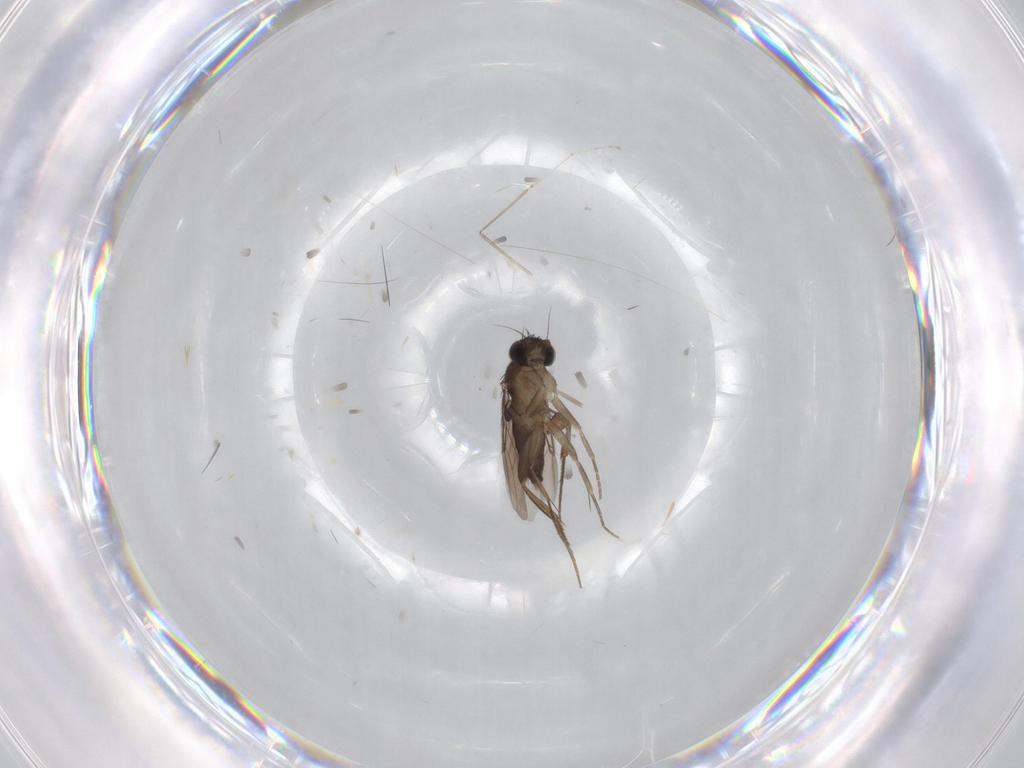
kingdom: Animalia
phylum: Arthropoda
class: Insecta
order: Diptera
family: Phoridae
